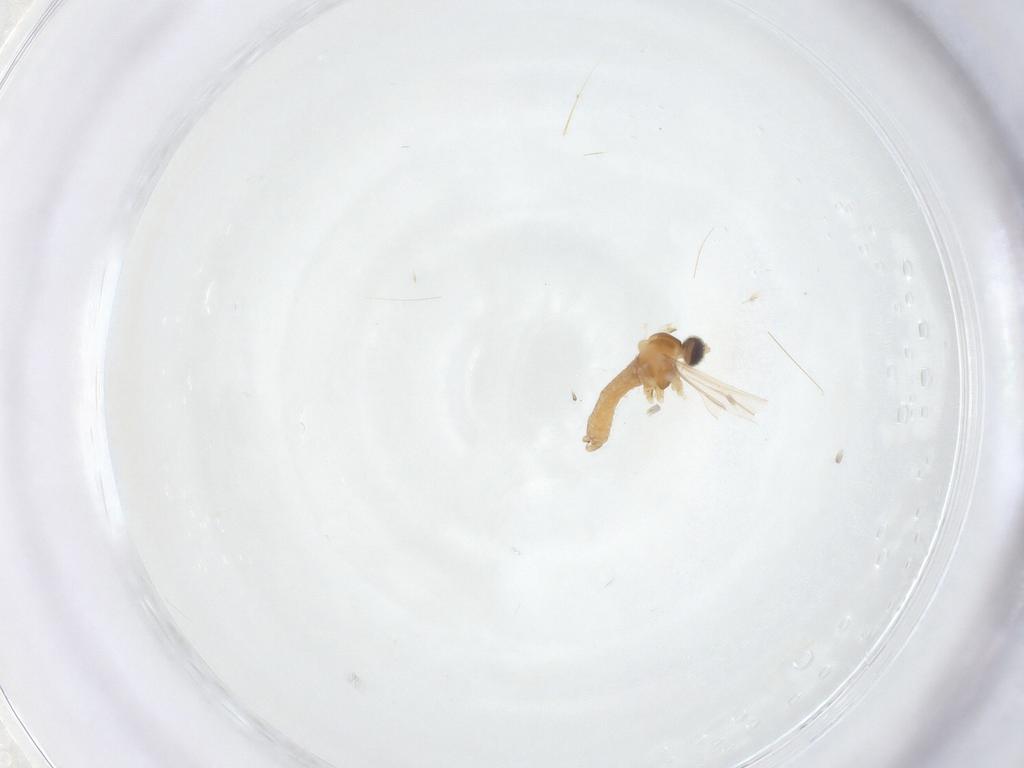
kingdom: Animalia
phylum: Arthropoda
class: Insecta
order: Diptera
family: Cecidomyiidae
